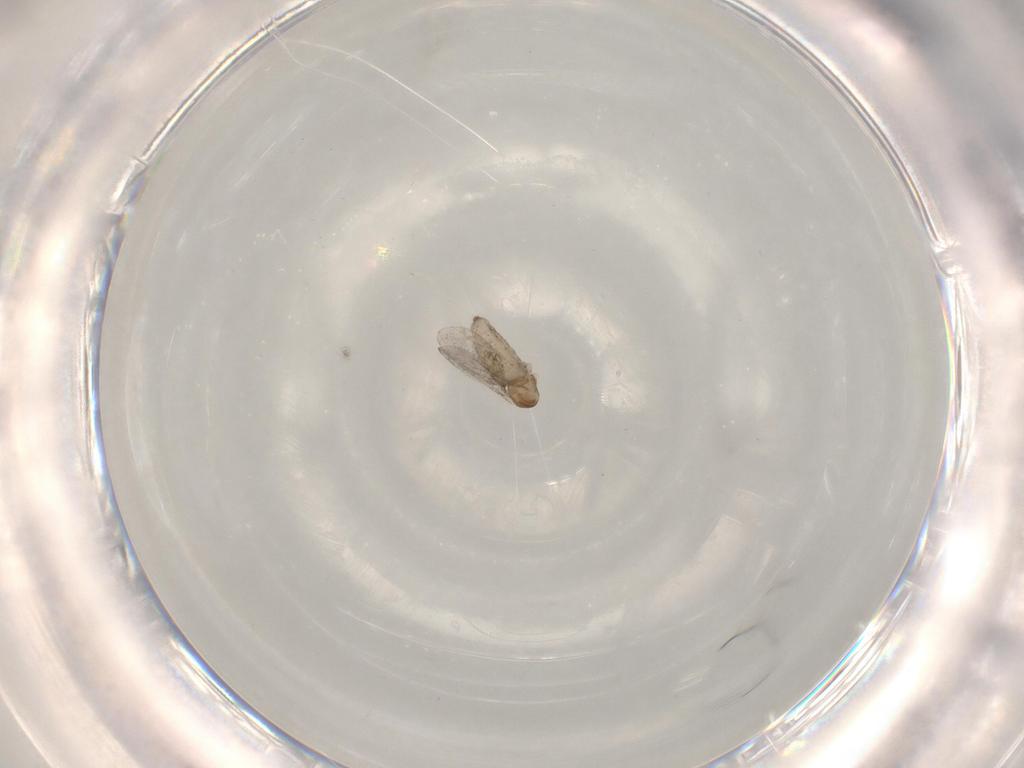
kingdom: Animalia
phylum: Arthropoda
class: Insecta
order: Diptera
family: Cecidomyiidae
